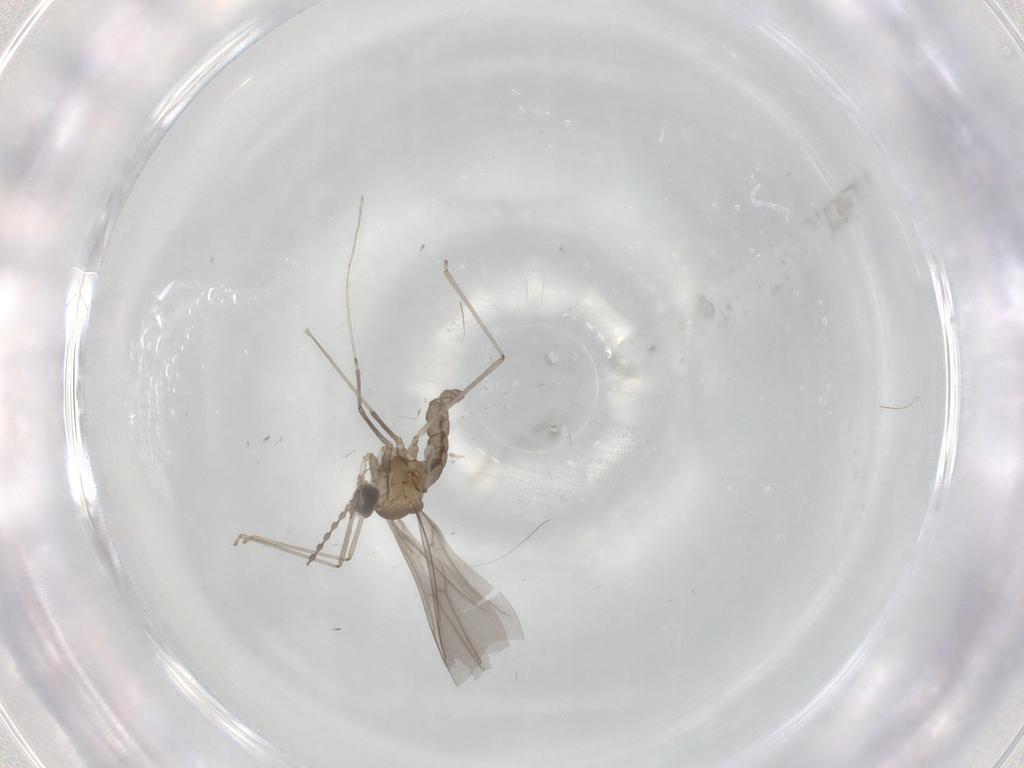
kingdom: Animalia
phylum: Arthropoda
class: Insecta
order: Diptera
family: Cecidomyiidae
